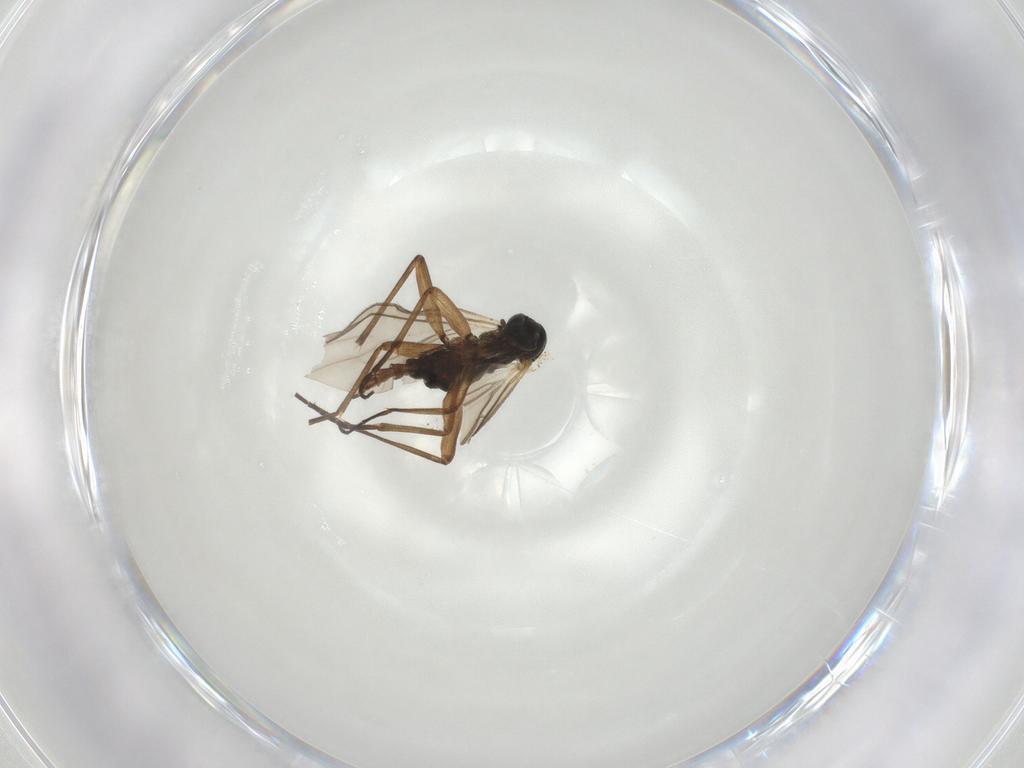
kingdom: Animalia
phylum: Arthropoda
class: Insecta
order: Diptera
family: Sciaridae
